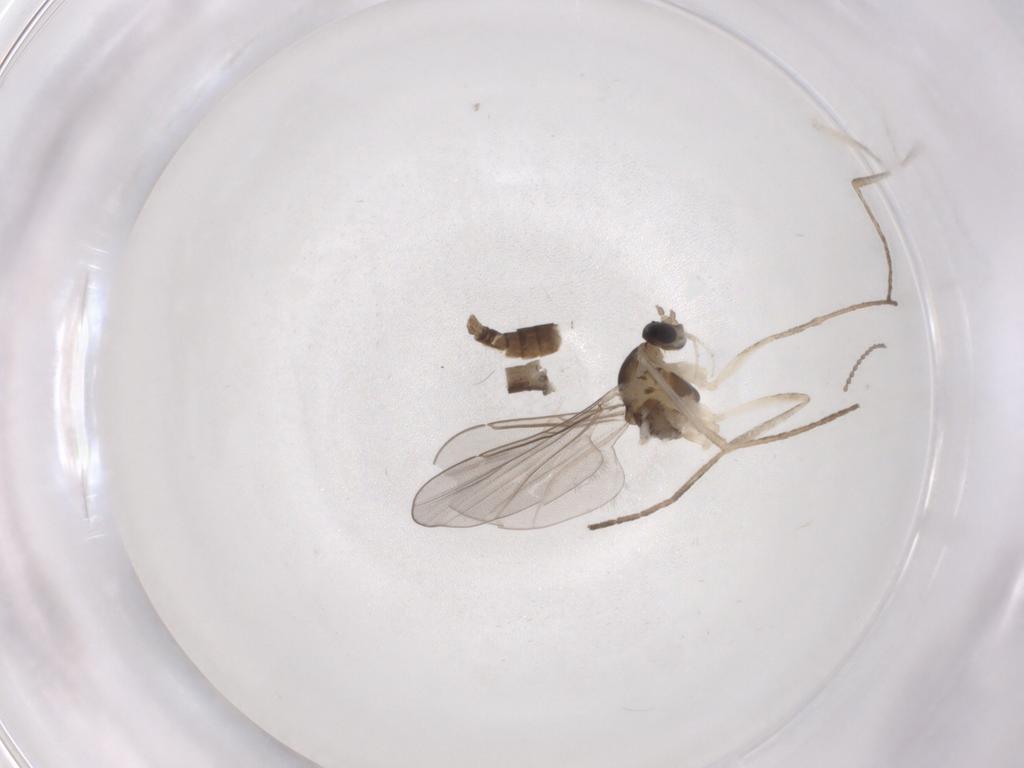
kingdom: Animalia
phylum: Arthropoda
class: Insecta
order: Diptera
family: Cecidomyiidae
